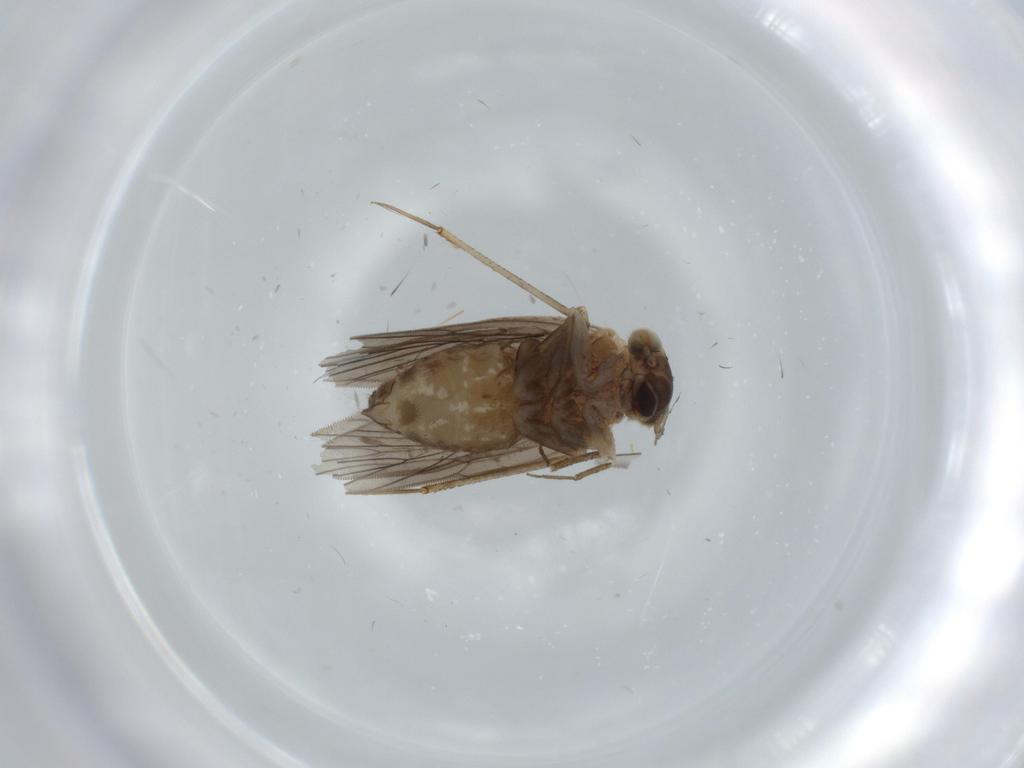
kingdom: Animalia
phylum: Arthropoda
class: Insecta
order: Psocodea
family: Lepidopsocidae
